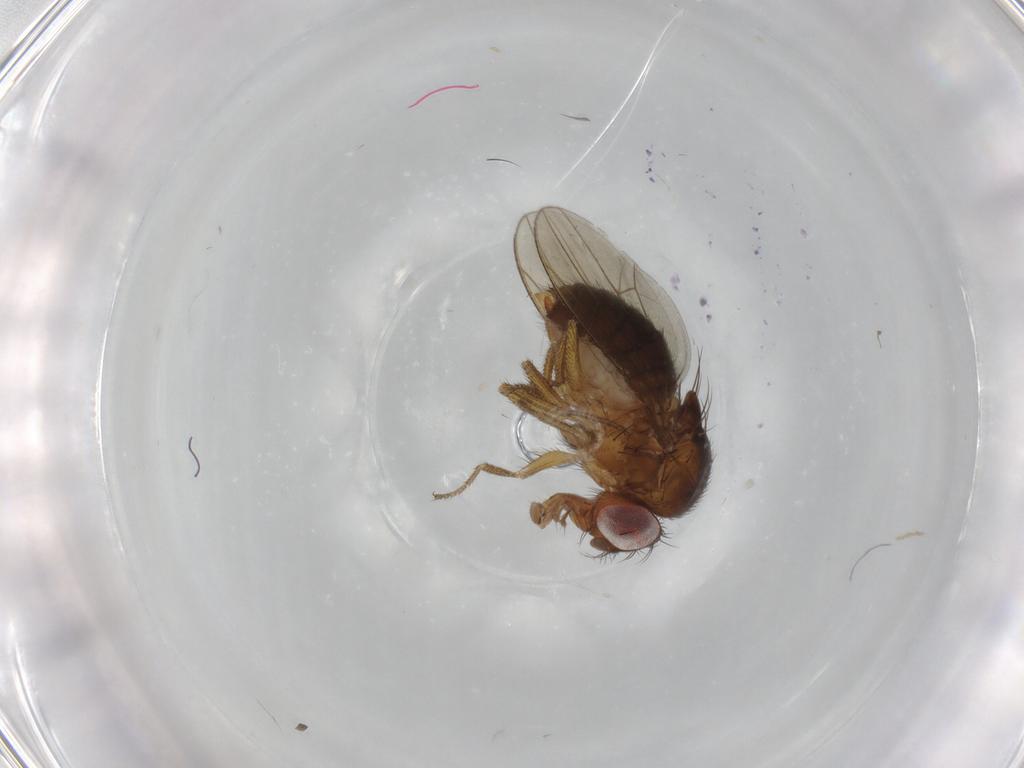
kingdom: Animalia
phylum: Arthropoda
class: Insecta
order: Diptera
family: Drosophilidae
